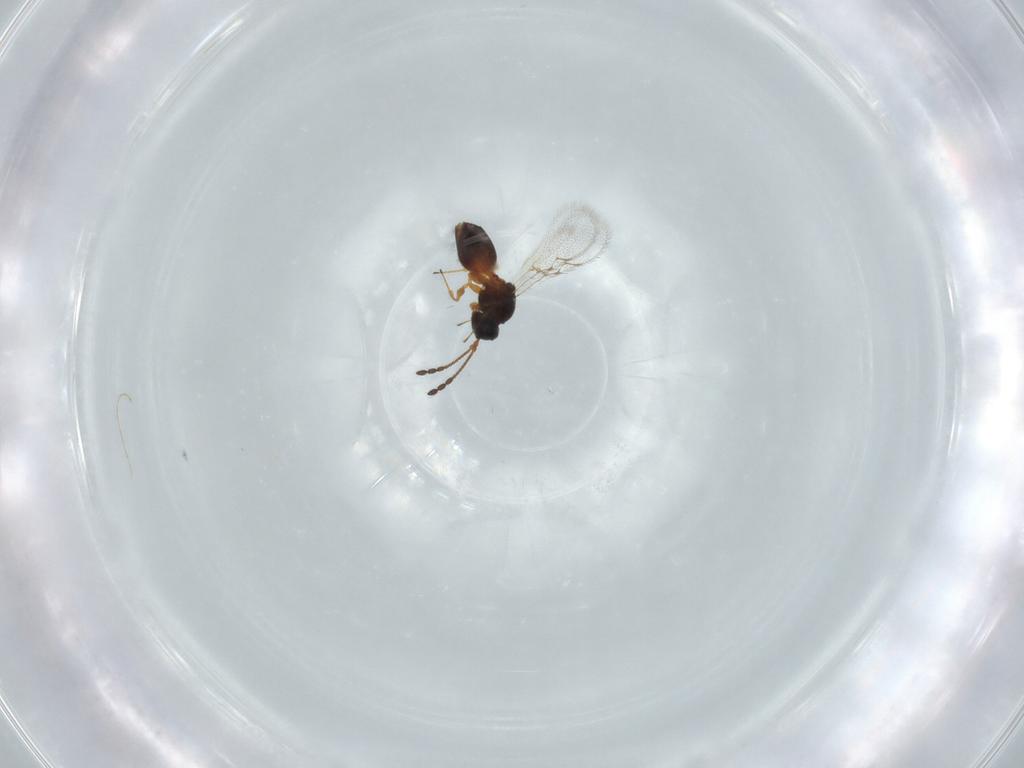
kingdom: Animalia
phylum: Arthropoda
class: Insecta
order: Hymenoptera
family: Figitidae
